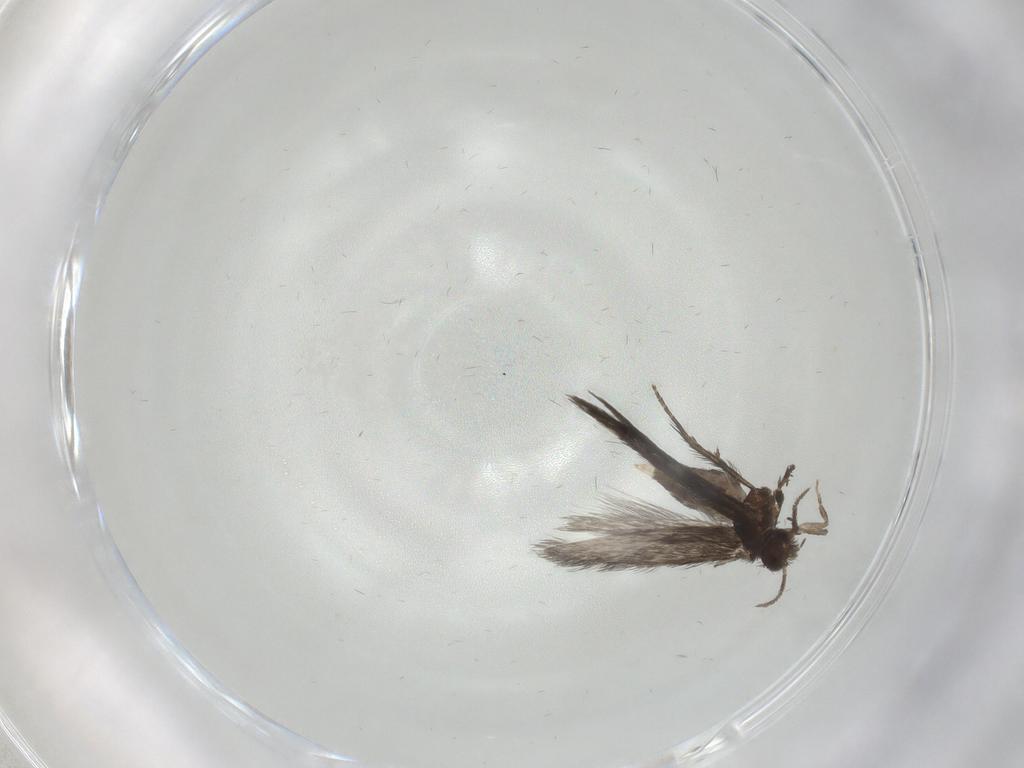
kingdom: Animalia
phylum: Arthropoda
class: Insecta
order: Trichoptera
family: Hydroptilidae
